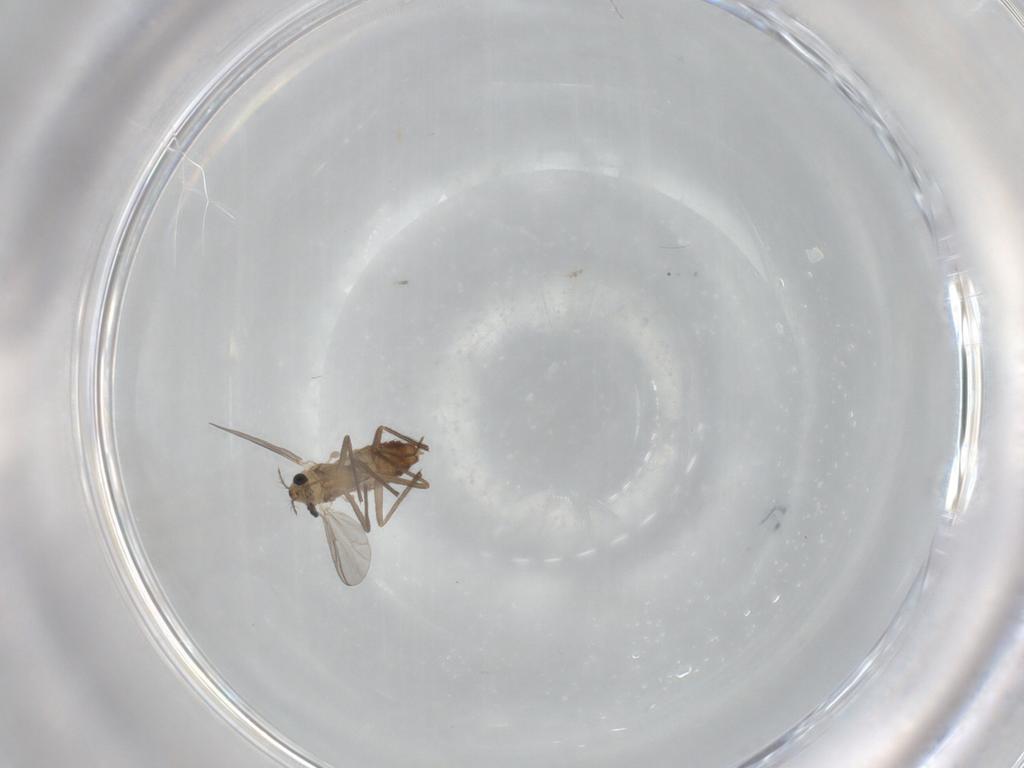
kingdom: Animalia
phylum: Arthropoda
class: Insecta
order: Diptera
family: Chironomidae
